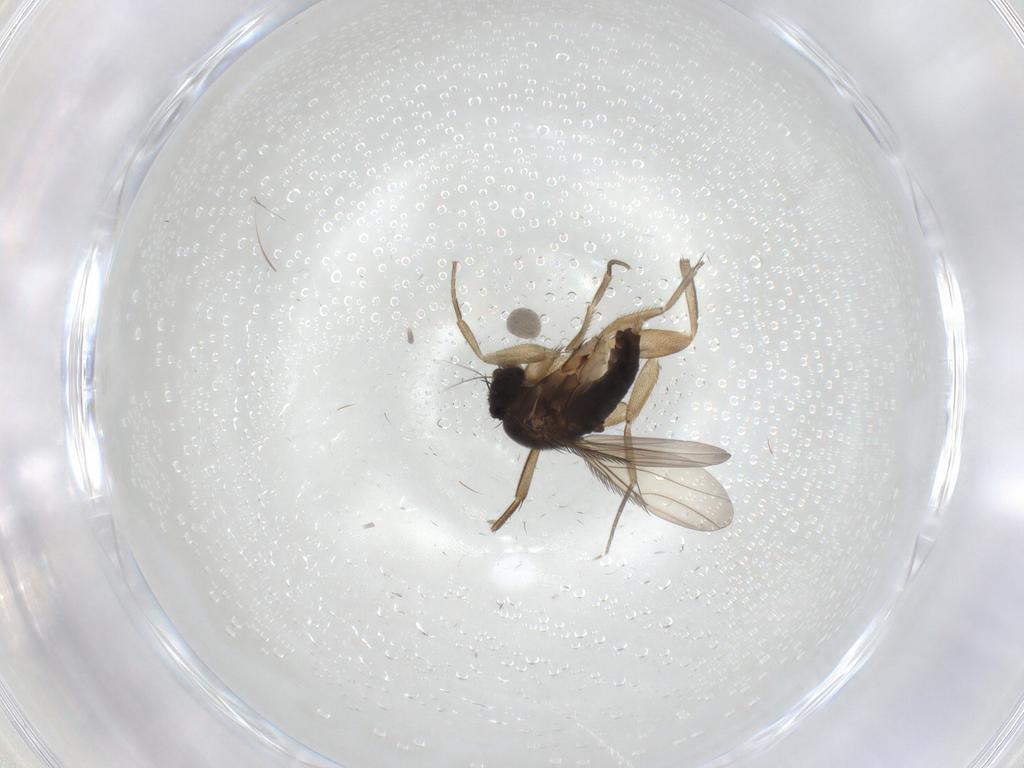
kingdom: Animalia
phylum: Arthropoda
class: Insecta
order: Diptera
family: Phoridae
